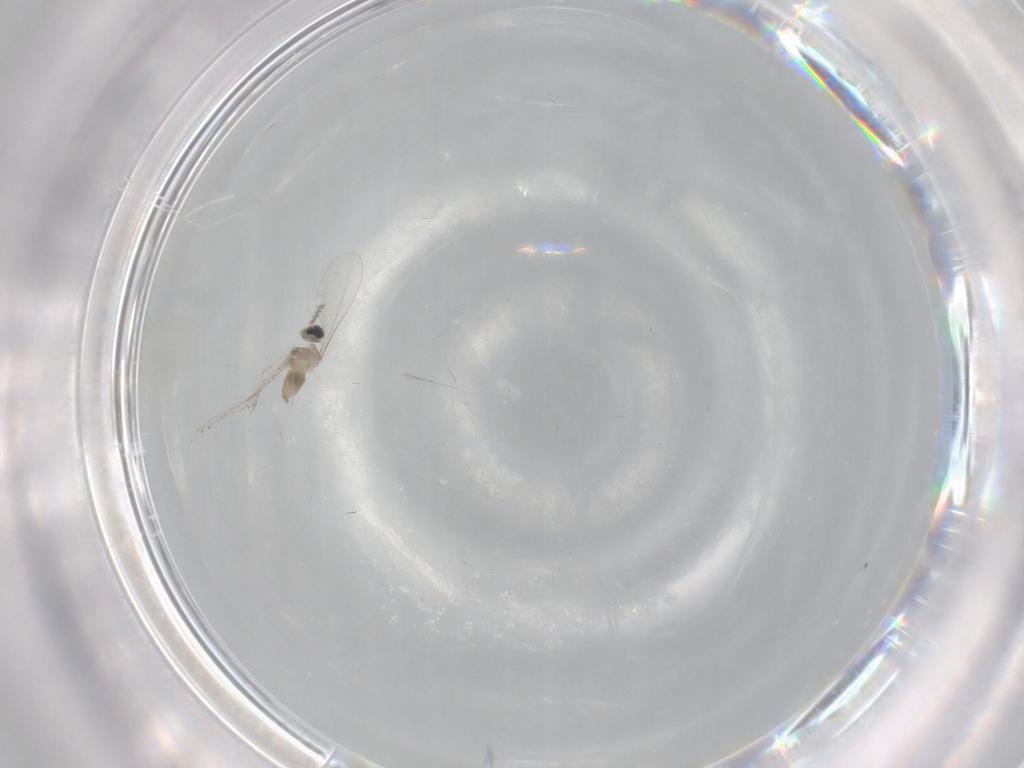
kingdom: Animalia
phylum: Arthropoda
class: Insecta
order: Diptera
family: Cecidomyiidae
